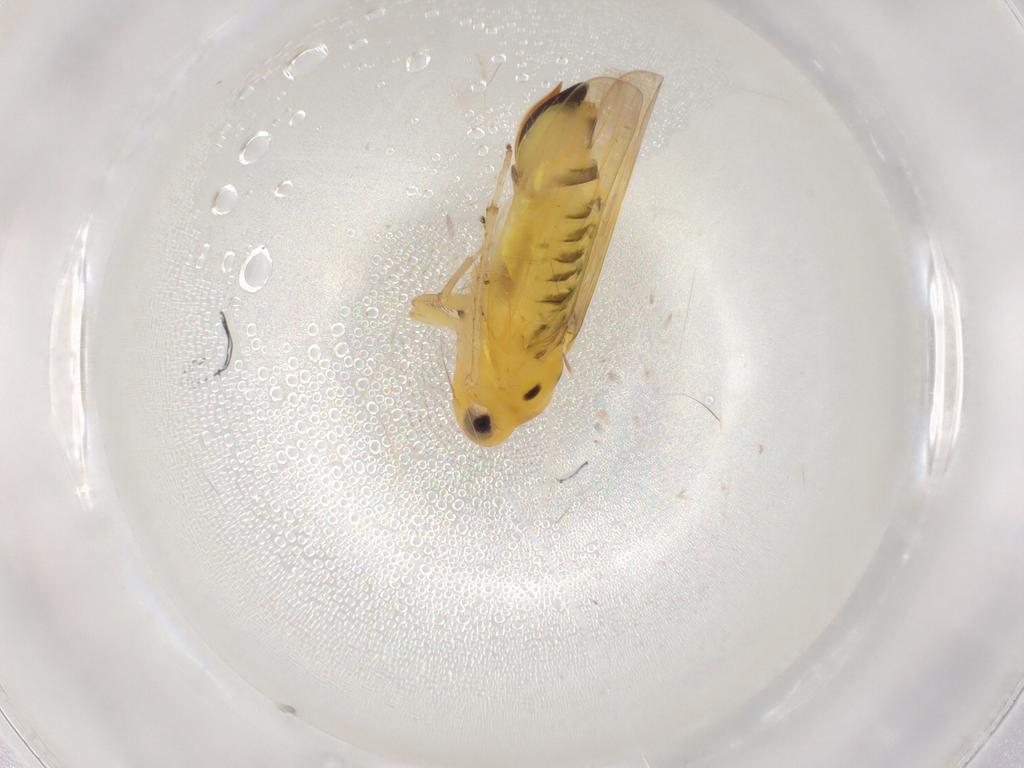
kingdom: Animalia
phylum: Arthropoda
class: Insecta
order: Hemiptera
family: Cicadellidae
